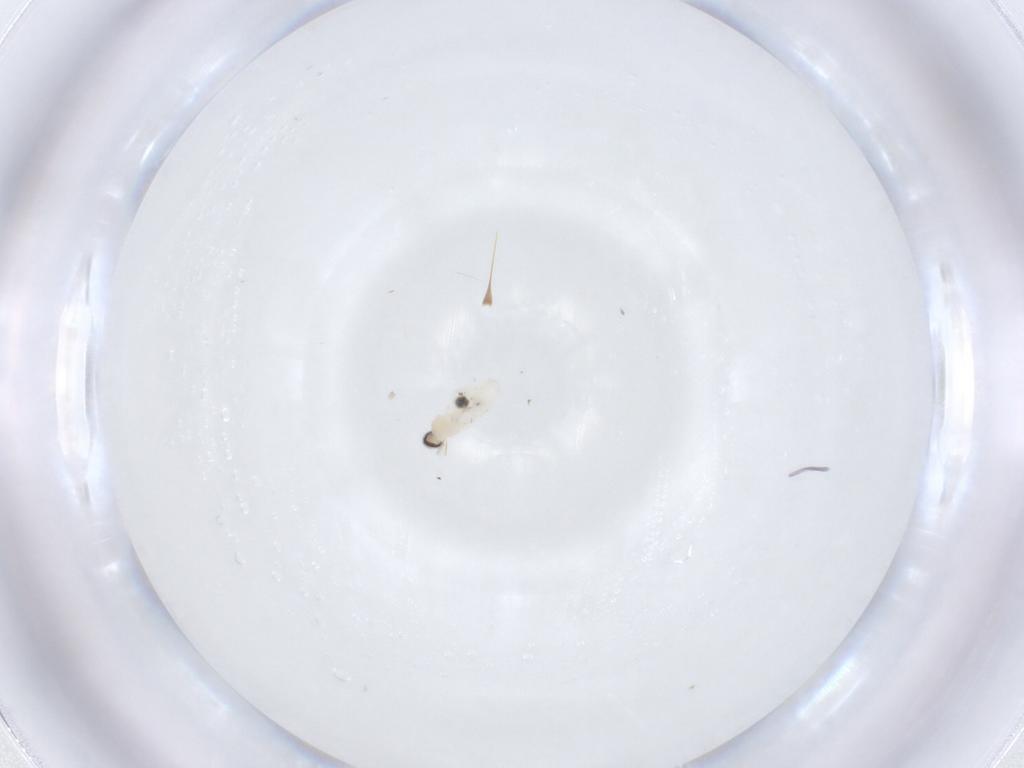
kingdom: Animalia
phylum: Arthropoda
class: Insecta
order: Diptera
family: Cecidomyiidae
